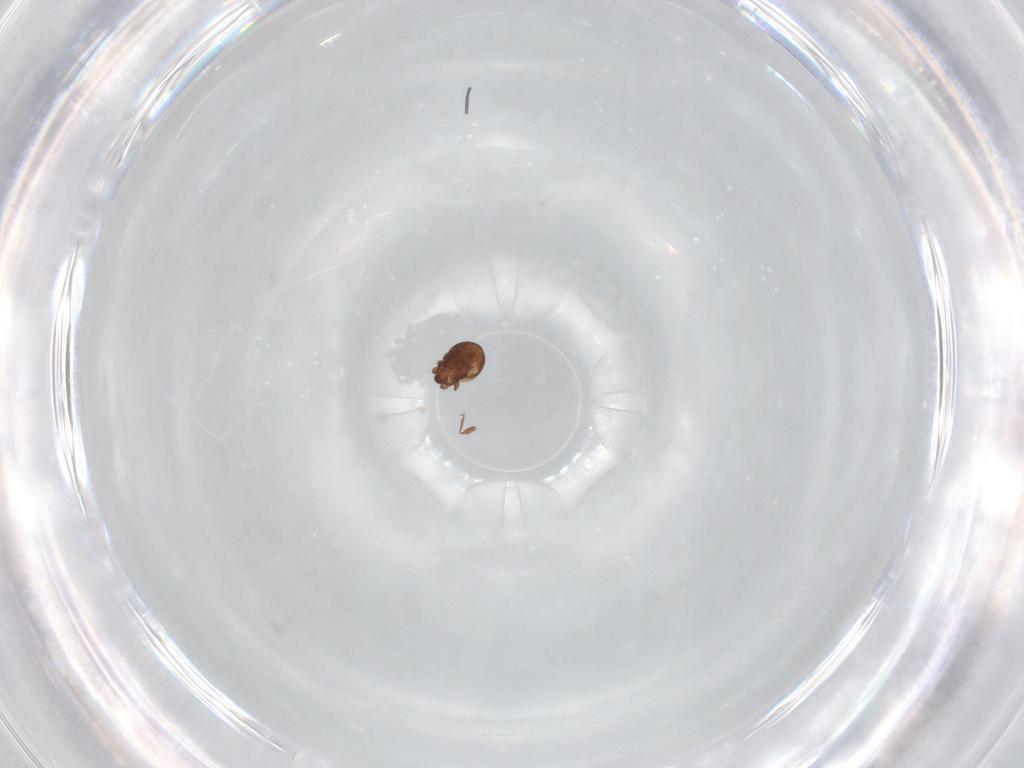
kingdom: Animalia
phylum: Arthropoda
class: Arachnida
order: Sarcoptiformes
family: Scheloribatidae
